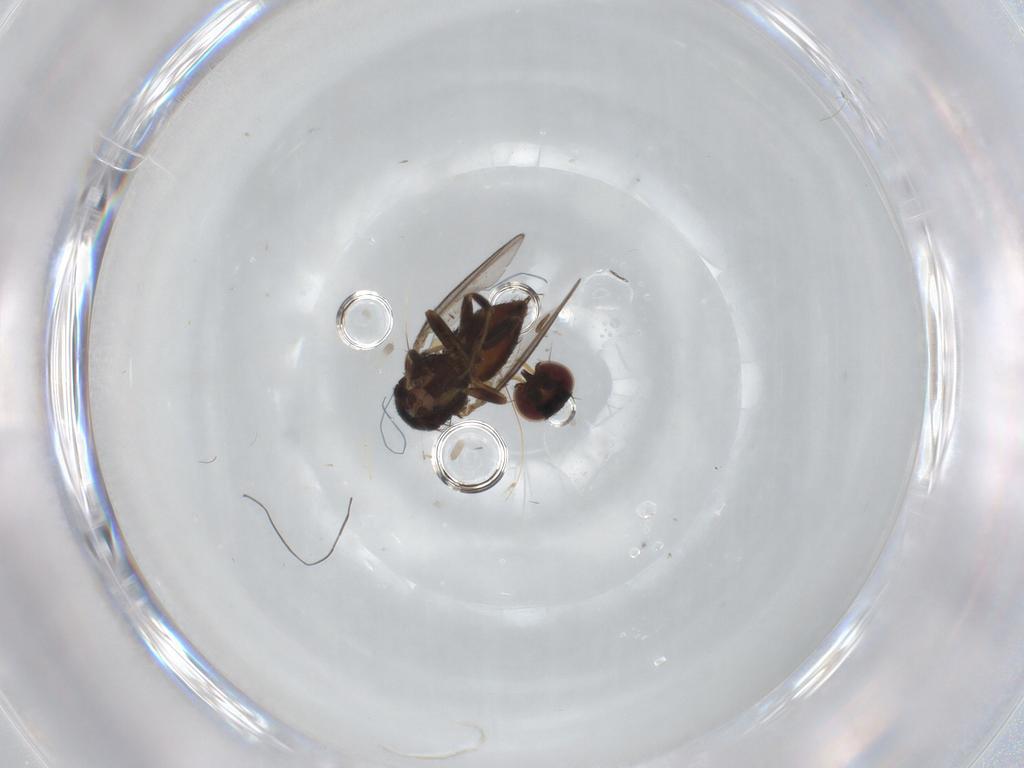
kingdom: Animalia
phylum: Arthropoda
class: Insecta
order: Diptera
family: Milichiidae
